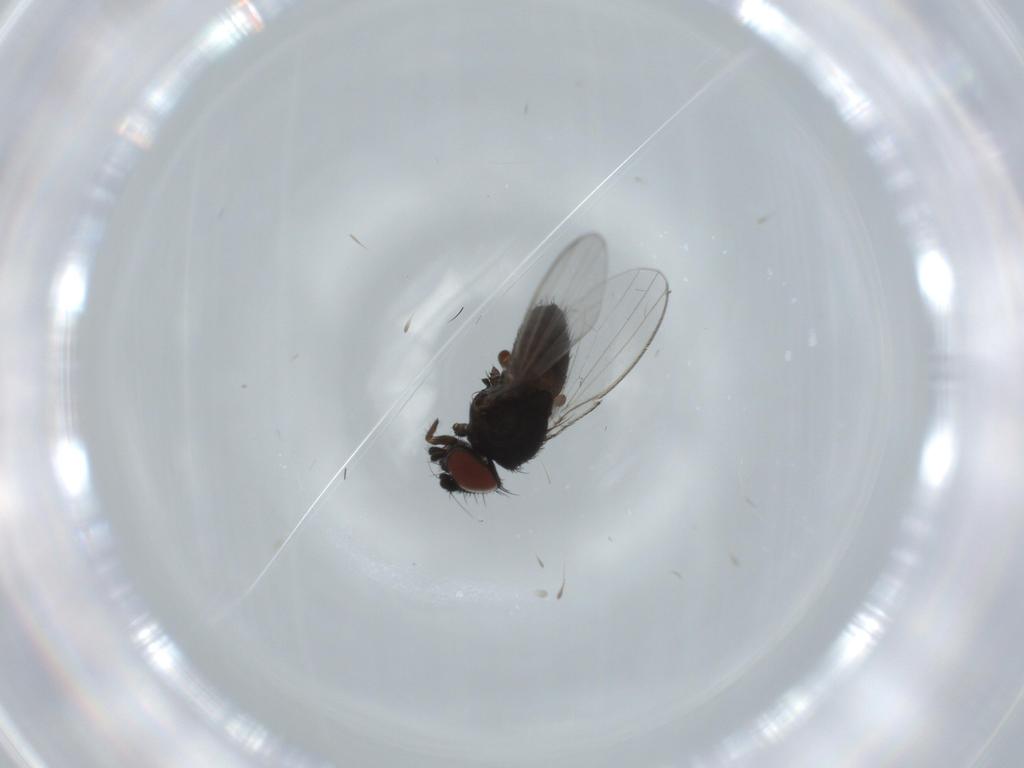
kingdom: Animalia
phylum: Arthropoda
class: Insecta
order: Diptera
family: Milichiidae
